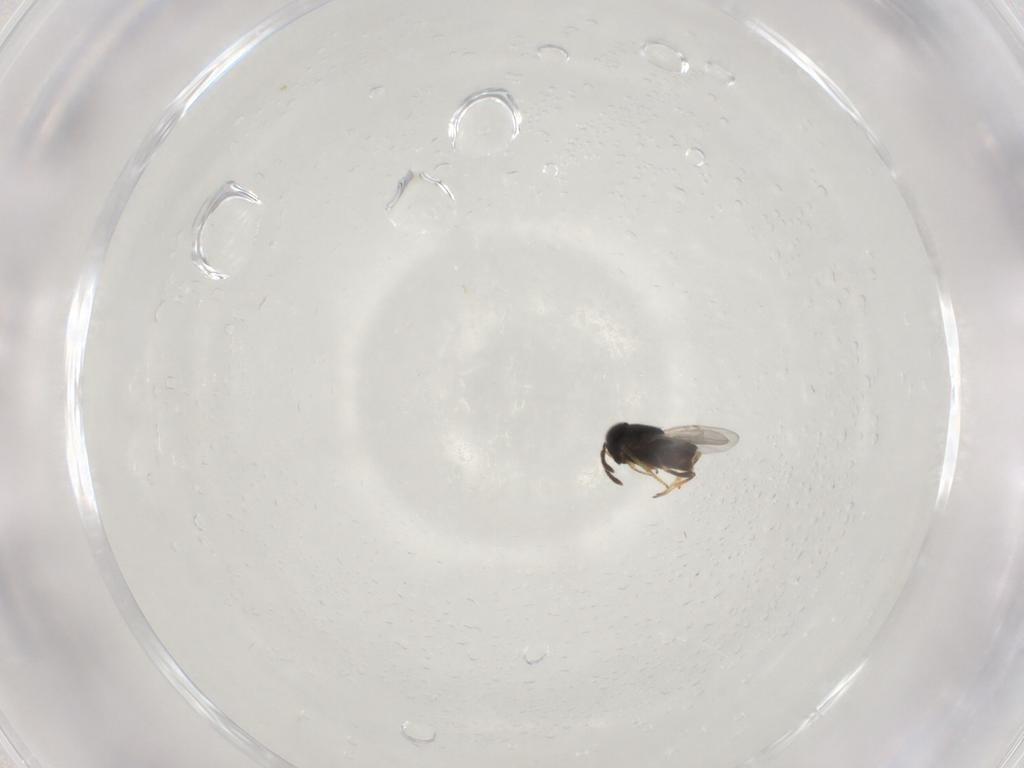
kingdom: Animalia
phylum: Arthropoda
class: Insecta
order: Coleoptera
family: Chrysomelidae
